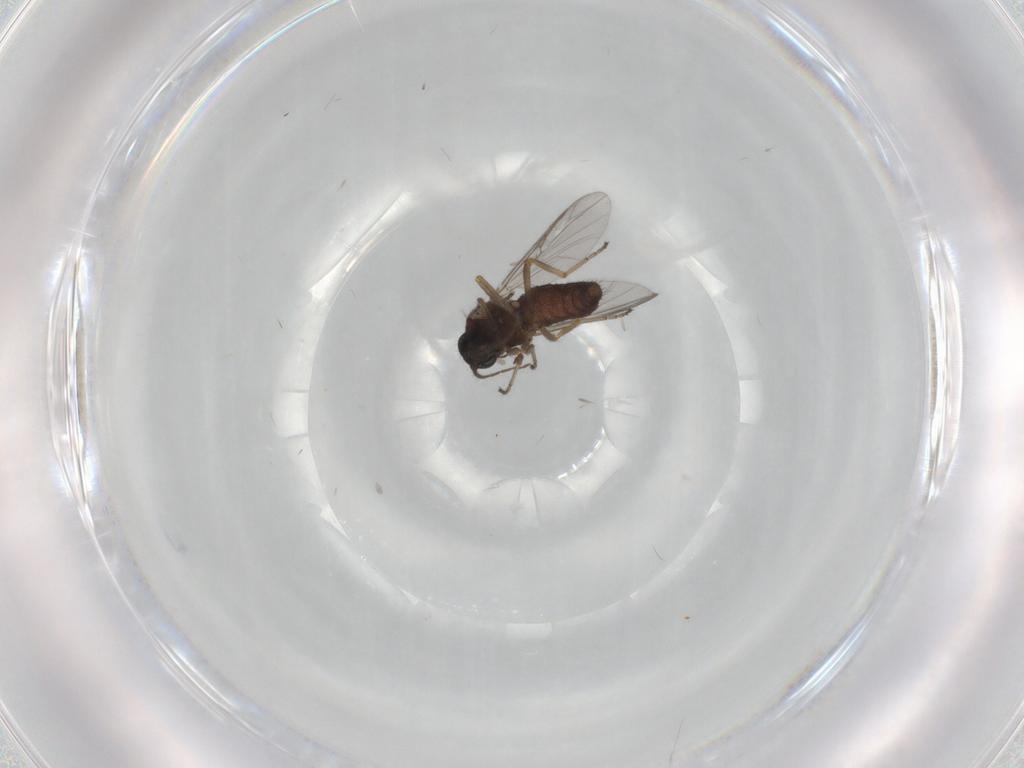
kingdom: Animalia
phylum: Arthropoda
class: Insecta
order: Diptera
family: Ceratopogonidae
